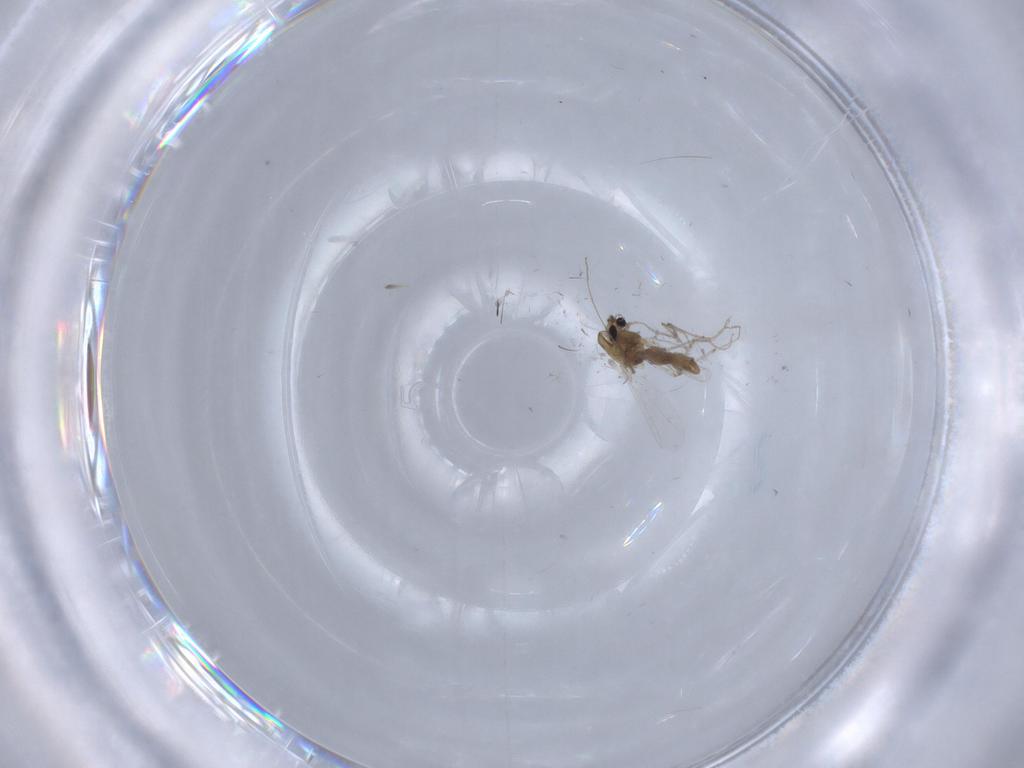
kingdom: Animalia
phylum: Arthropoda
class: Insecta
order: Diptera
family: Chironomidae
